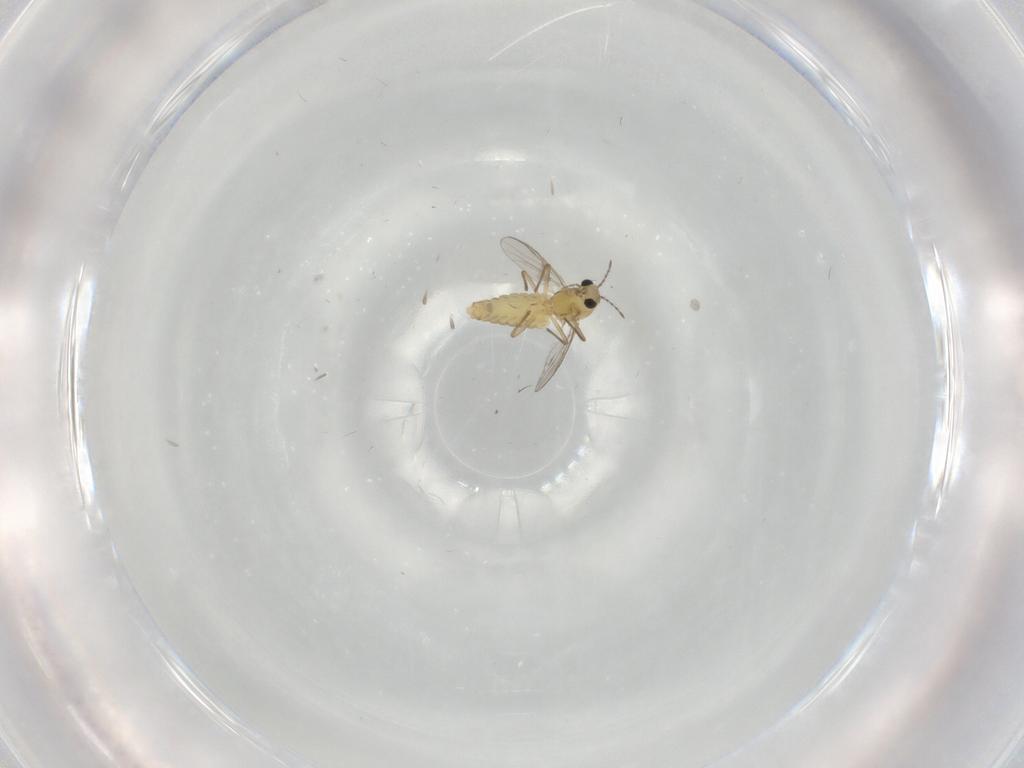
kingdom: Animalia
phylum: Arthropoda
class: Insecta
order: Diptera
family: Chironomidae
